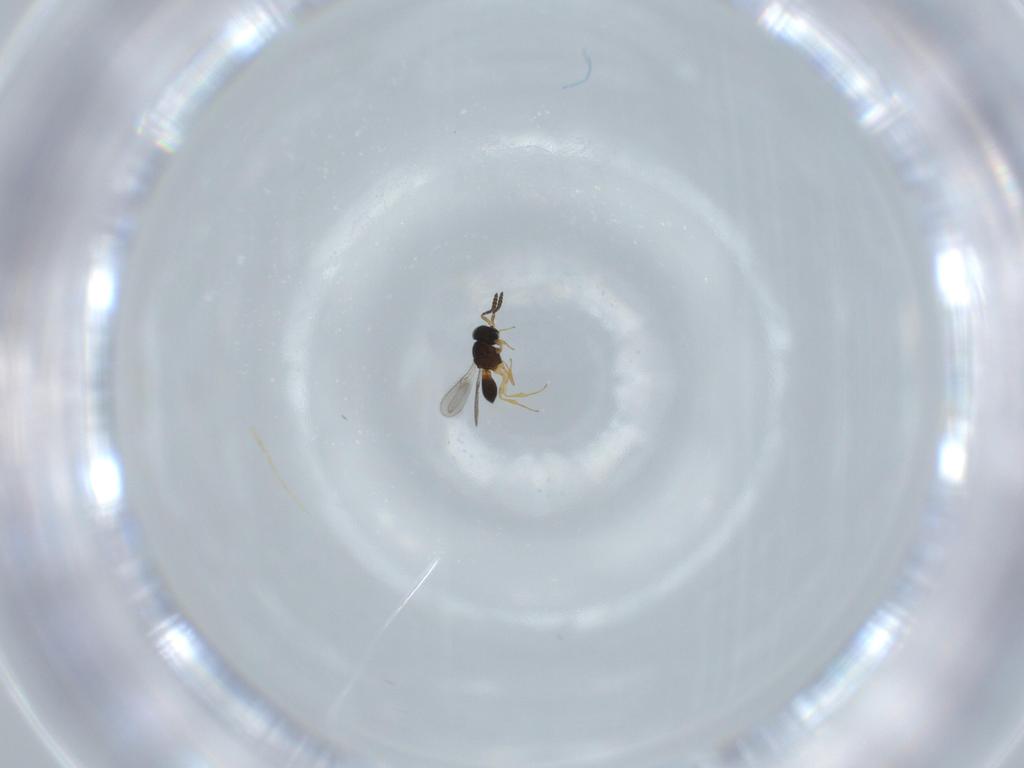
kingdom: Animalia
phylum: Arthropoda
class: Insecta
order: Hymenoptera
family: Scelionidae
